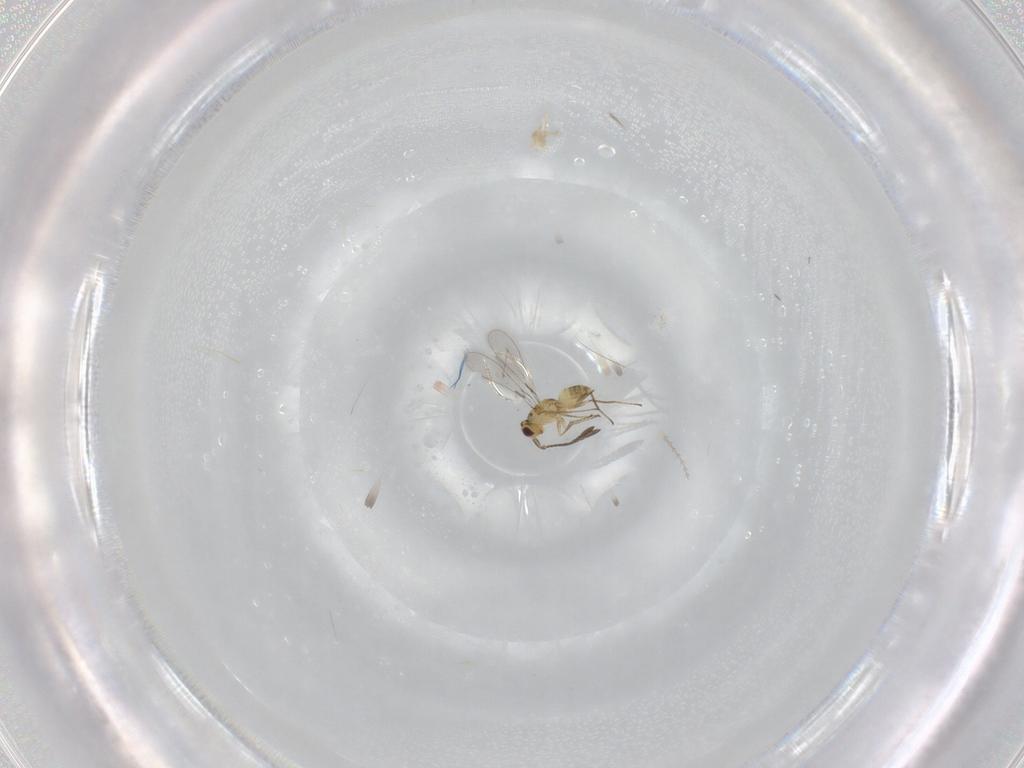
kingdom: Animalia
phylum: Arthropoda
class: Insecta
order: Hymenoptera
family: Mymaridae
